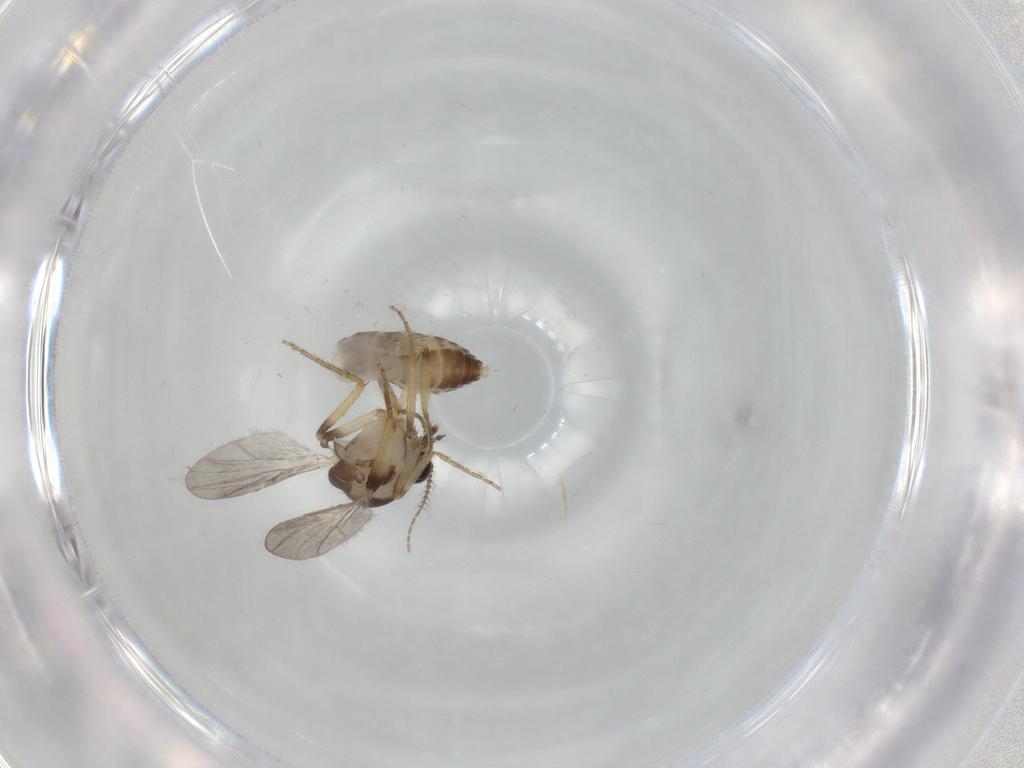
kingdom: Animalia
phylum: Arthropoda
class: Insecta
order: Diptera
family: Ceratopogonidae
